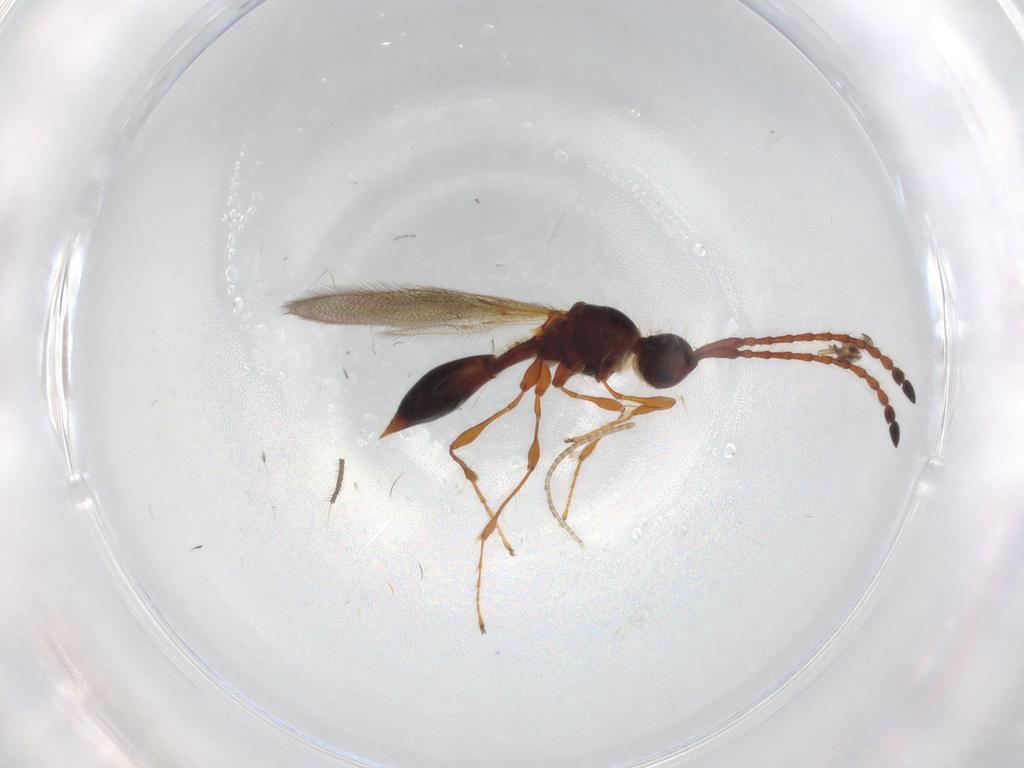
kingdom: Animalia
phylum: Arthropoda
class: Insecta
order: Hymenoptera
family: Diapriidae
